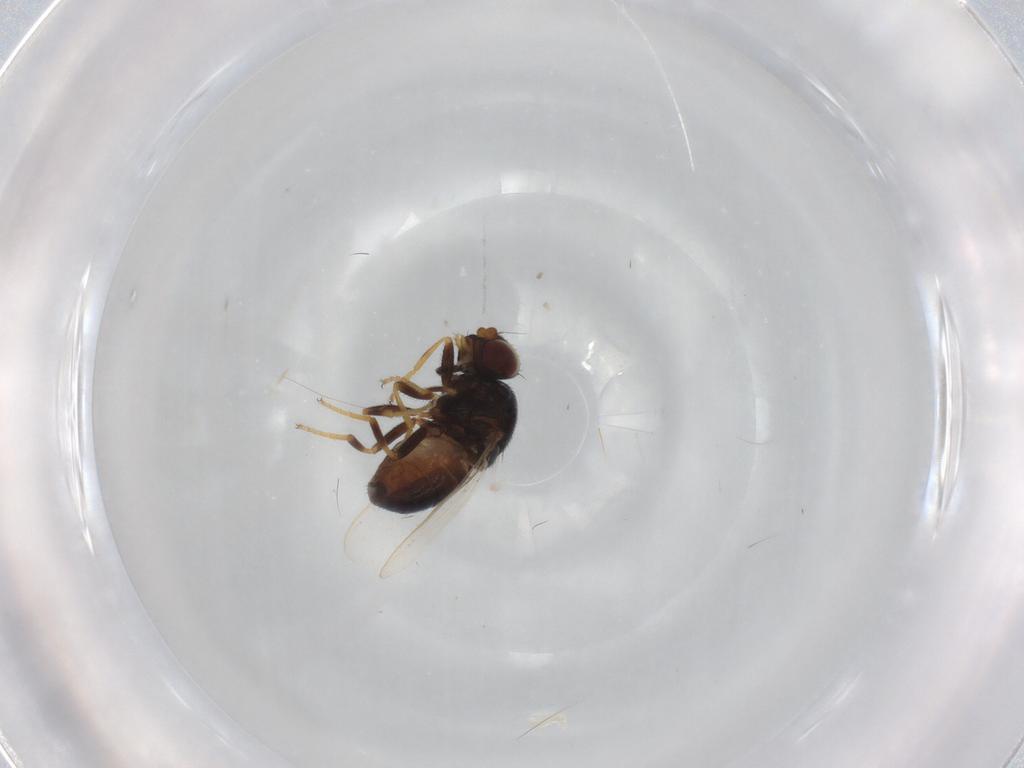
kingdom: Animalia
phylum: Arthropoda
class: Insecta
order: Diptera
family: Chloropidae
